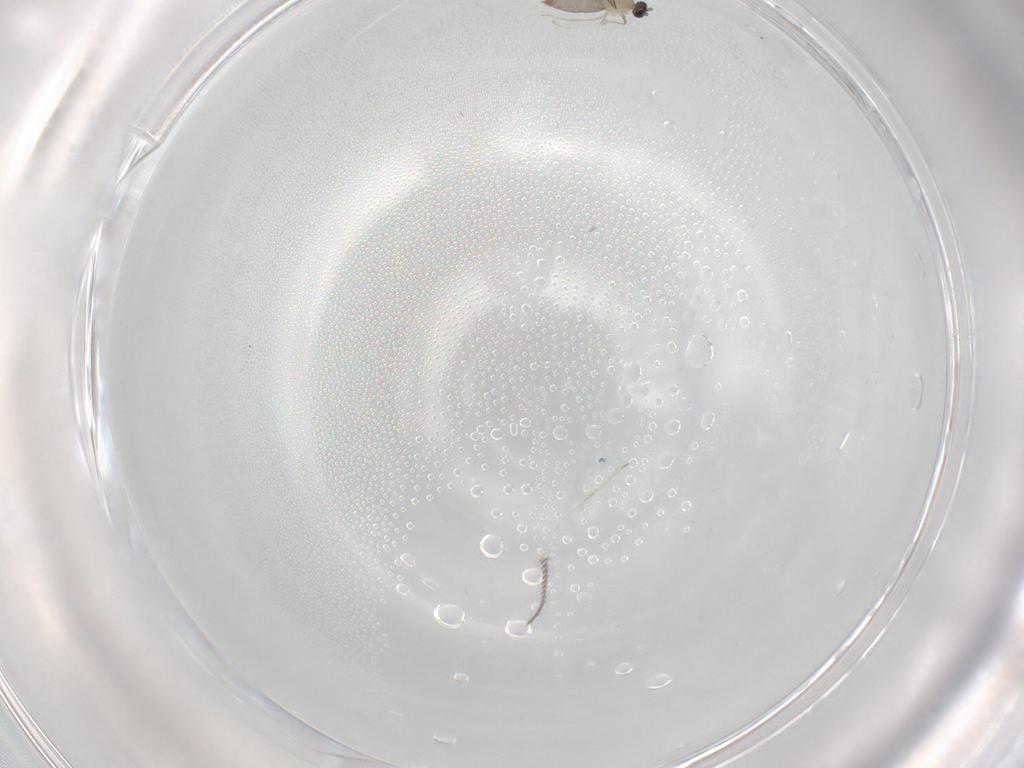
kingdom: Animalia
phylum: Arthropoda
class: Insecta
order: Diptera
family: Cecidomyiidae
